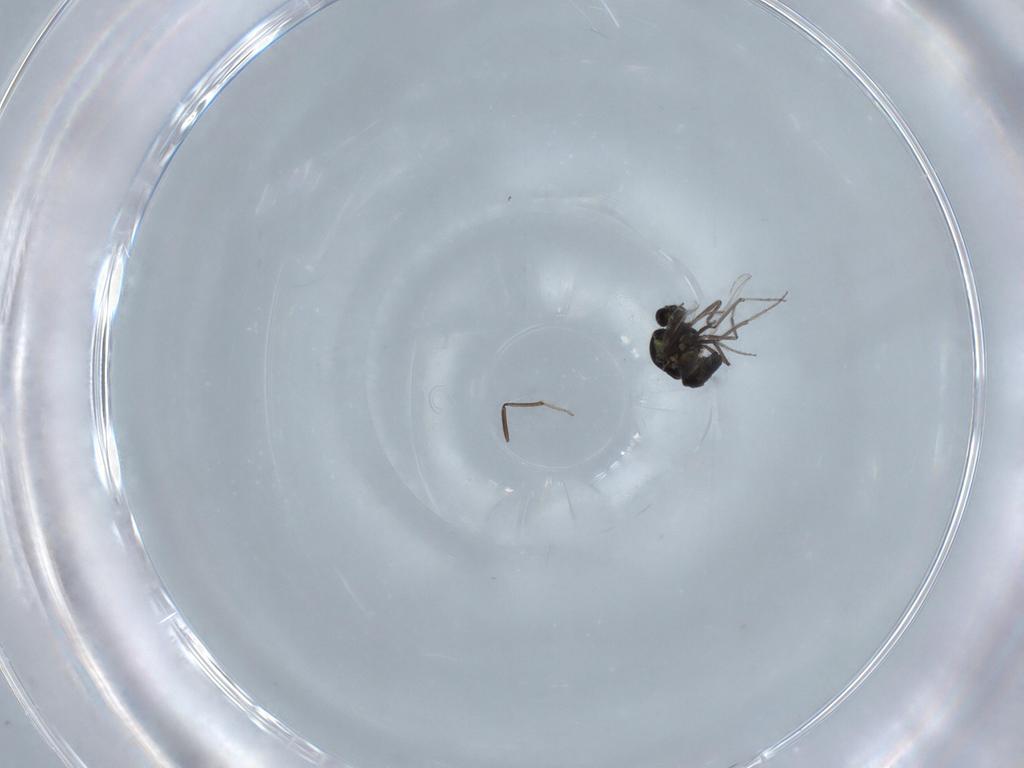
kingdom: Animalia
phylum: Arthropoda
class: Insecta
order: Diptera
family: Ceratopogonidae
